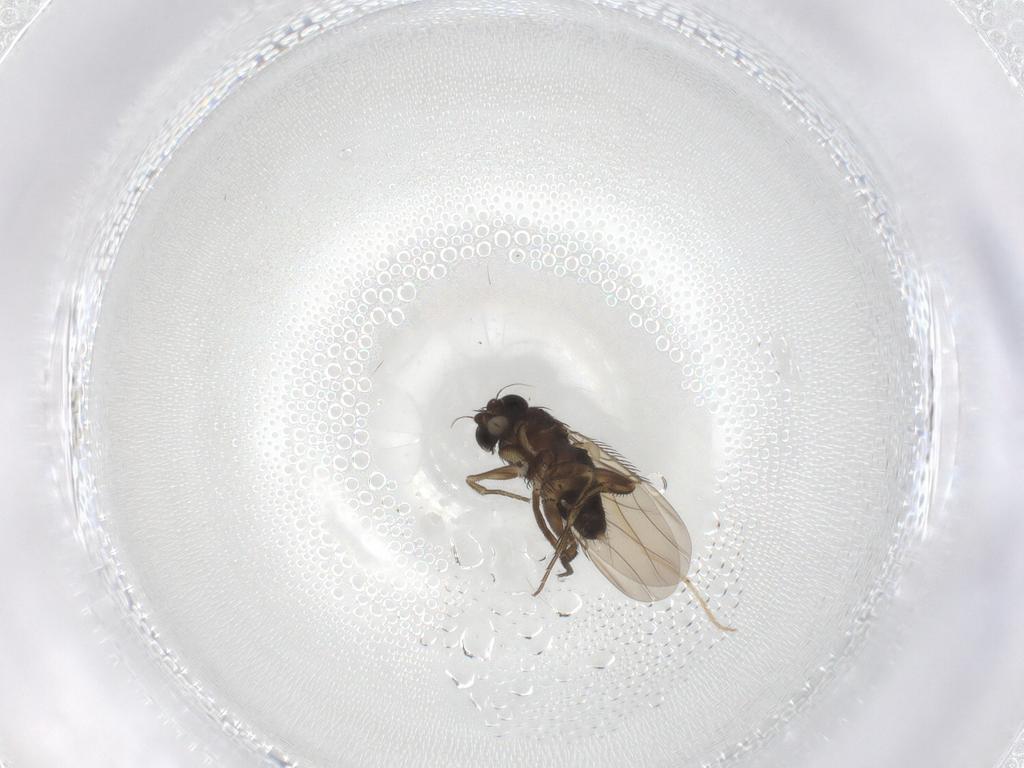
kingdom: Animalia
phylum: Arthropoda
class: Insecta
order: Diptera
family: Phoridae
